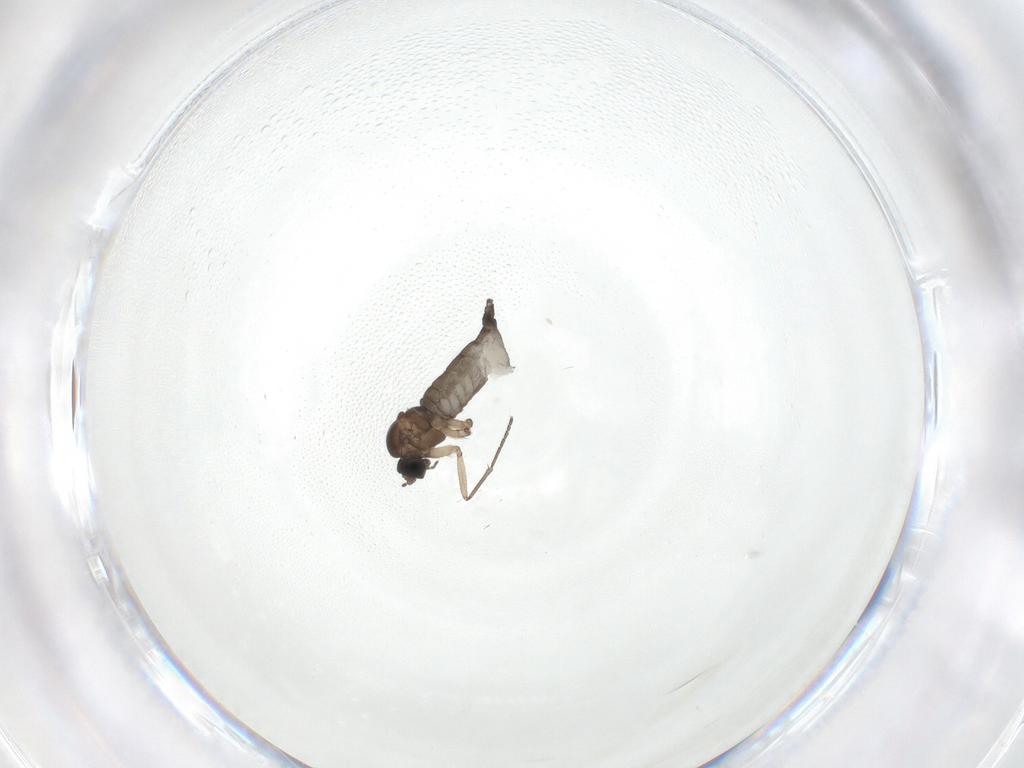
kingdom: Animalia
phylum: Arthropoda
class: Insecta
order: Diptera
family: Sciaridae
